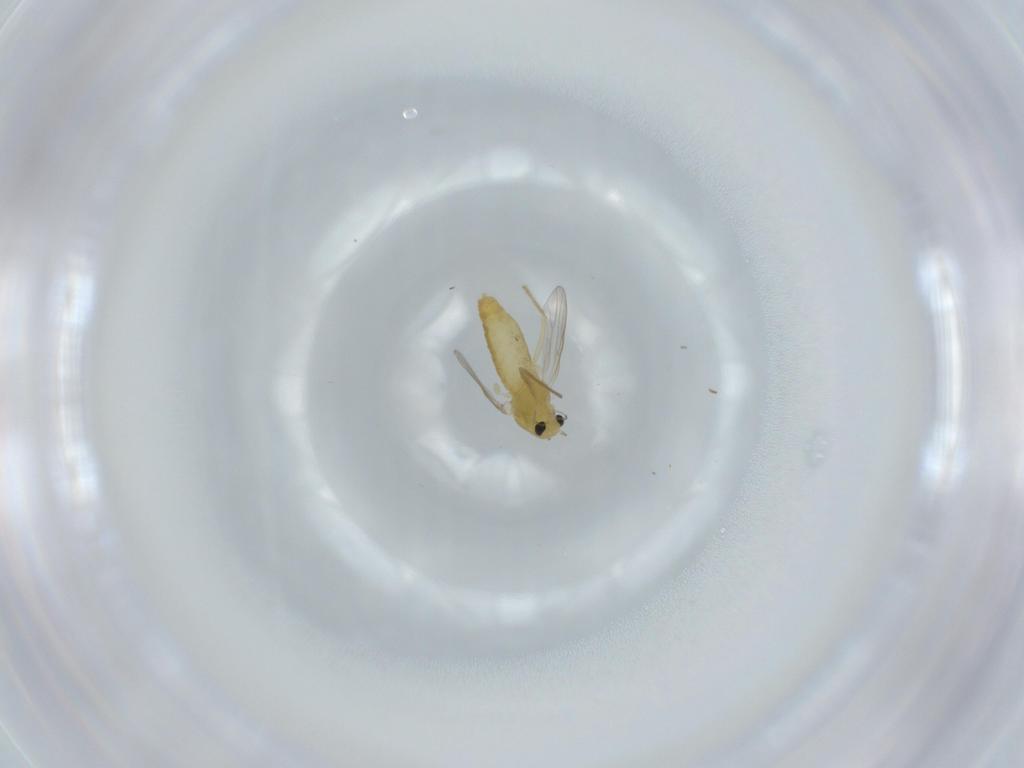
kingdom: Animalia
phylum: Arthropoda
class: Insecta
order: Diptera
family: Chironomidae
